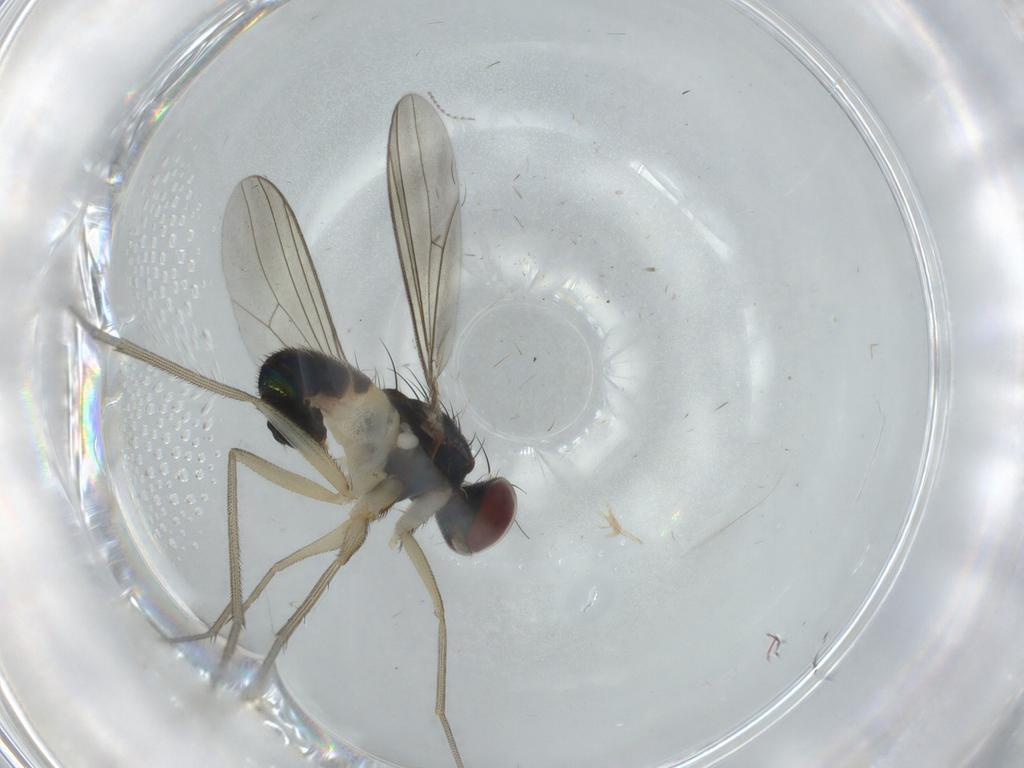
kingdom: Animalia
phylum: Arthropoda
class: Insecta
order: Diptera
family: Dolichopodidae
